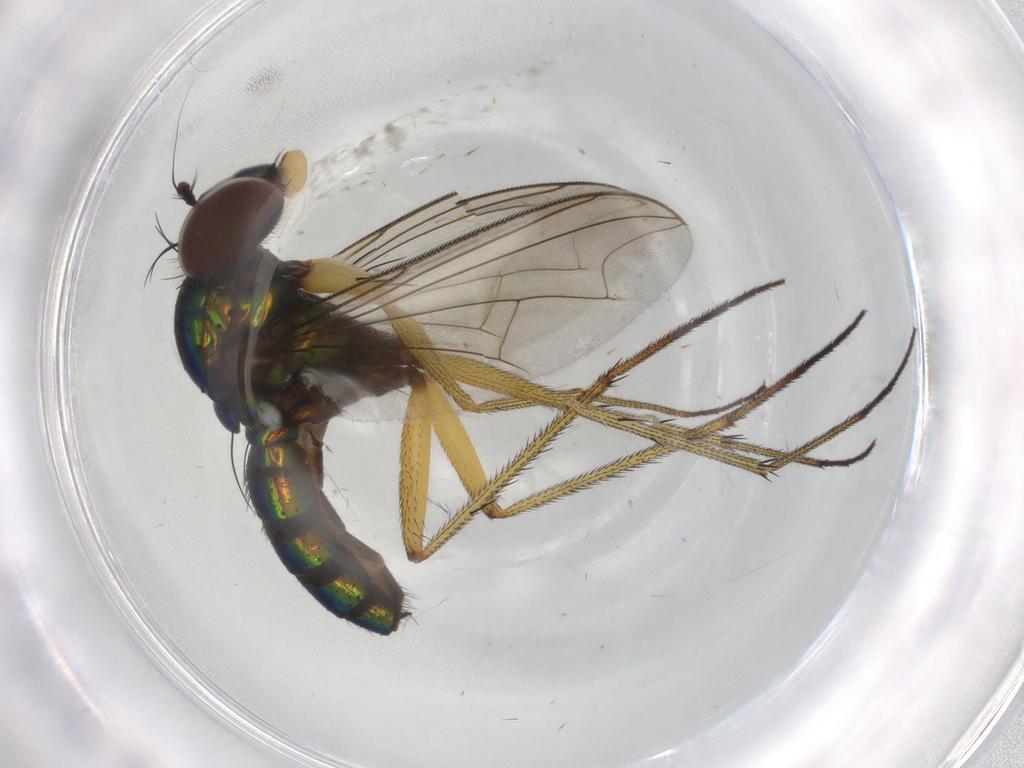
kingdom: Animalia
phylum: Arthropoda
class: Insecta
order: Diptera
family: Dolichopodidae
